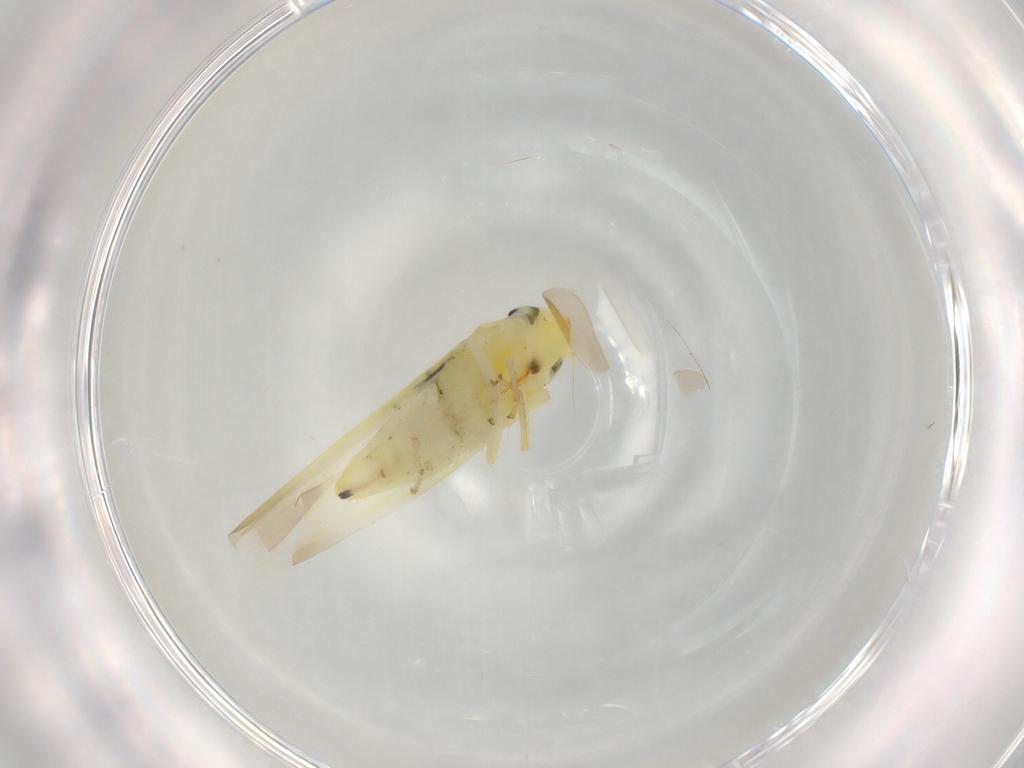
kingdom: Animalia
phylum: Arthropoda
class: Insecta
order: Hemiptera
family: Cicadellidae
